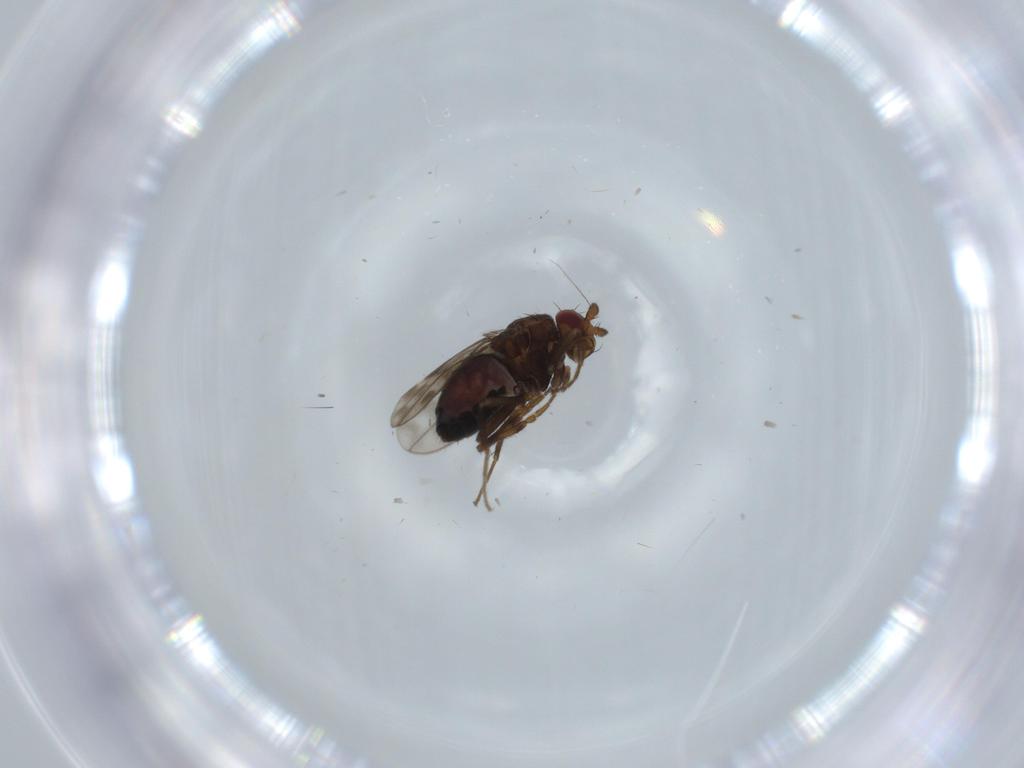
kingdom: Animalia
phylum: Arthropoda
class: Insecta
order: Diptera
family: Sphaeroceridae
